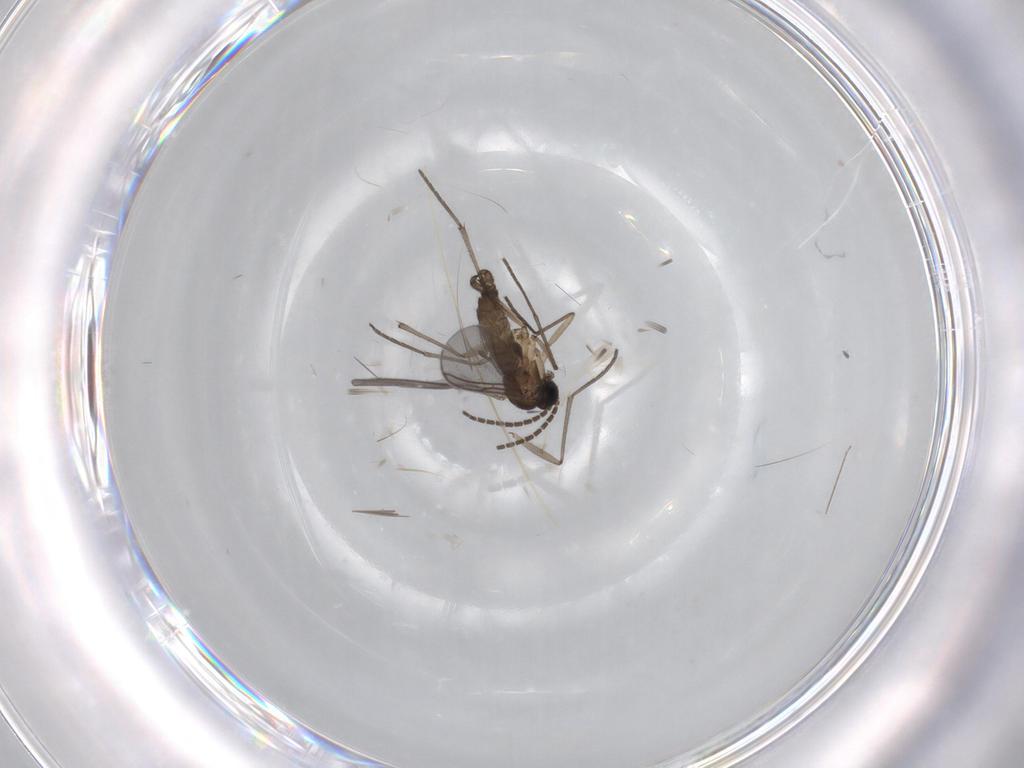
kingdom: Animalia
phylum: Arthropoda
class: Insecta
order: Diptera
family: Sciaridae
